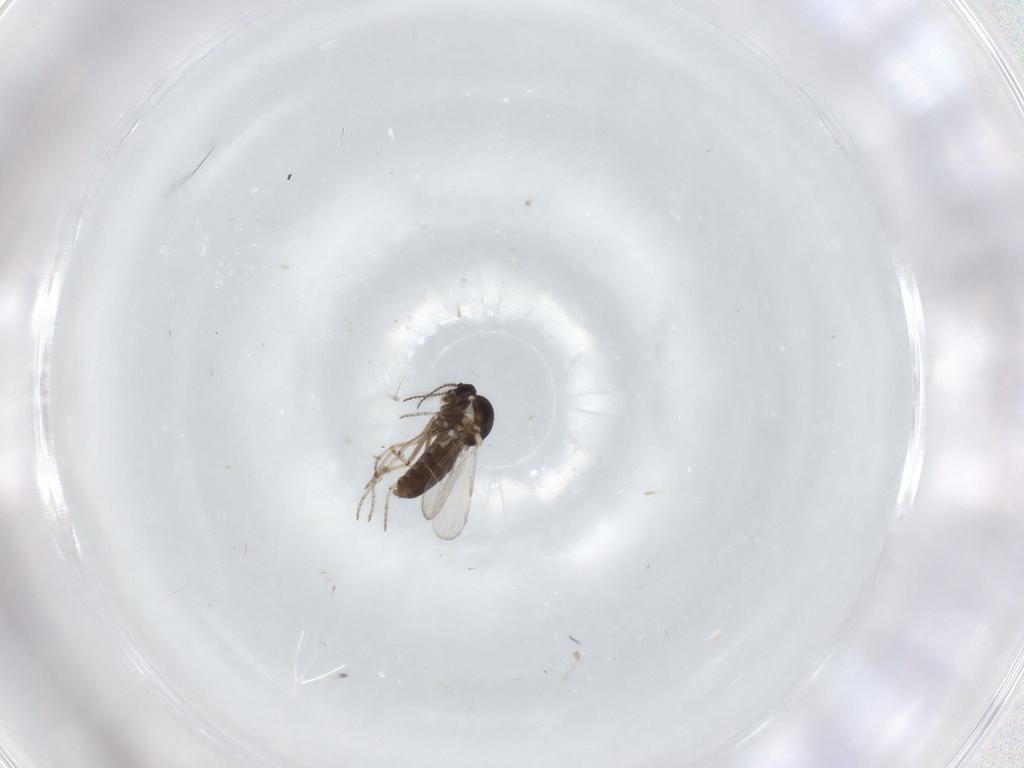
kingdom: Animalia
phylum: Arthropoda
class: Insecta
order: Diptera
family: Ceratopogonidae
